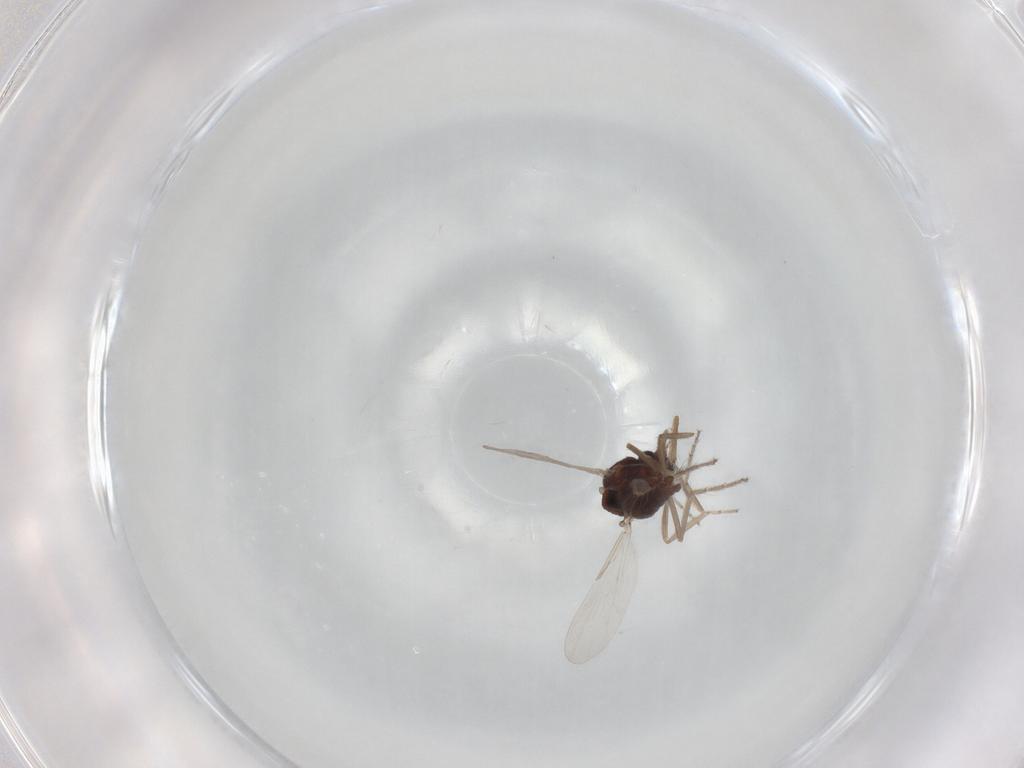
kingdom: Animalia
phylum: Arthropoda
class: Insecta
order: Diptera
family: Ceratopogonidae
